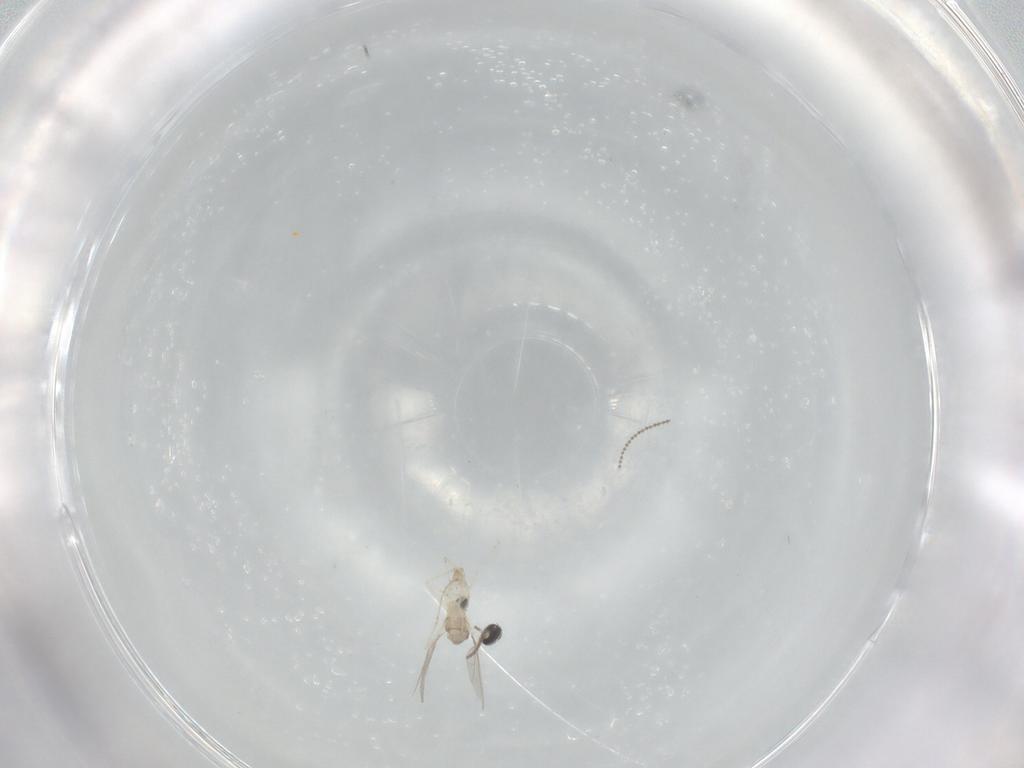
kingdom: Animalia
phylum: Arthropoda
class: Insecta
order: Diptera
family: Cecidomyiidae
